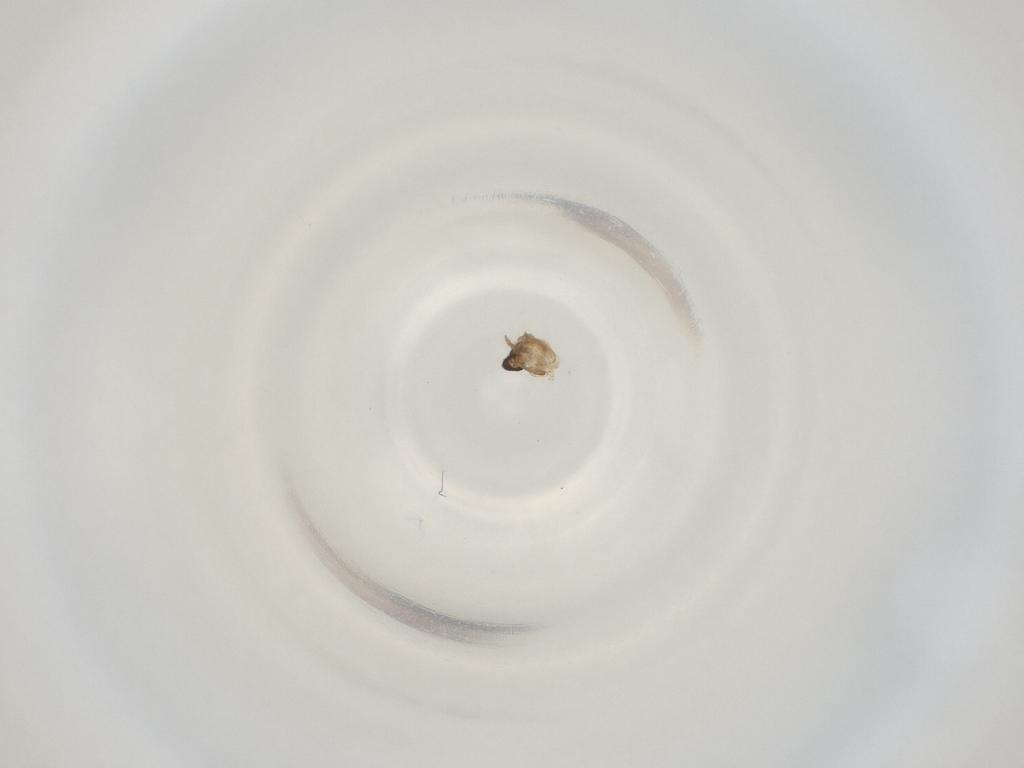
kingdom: Animalia
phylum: Arthropoda
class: Insecta
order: Diptera
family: Cecidomyiidae
